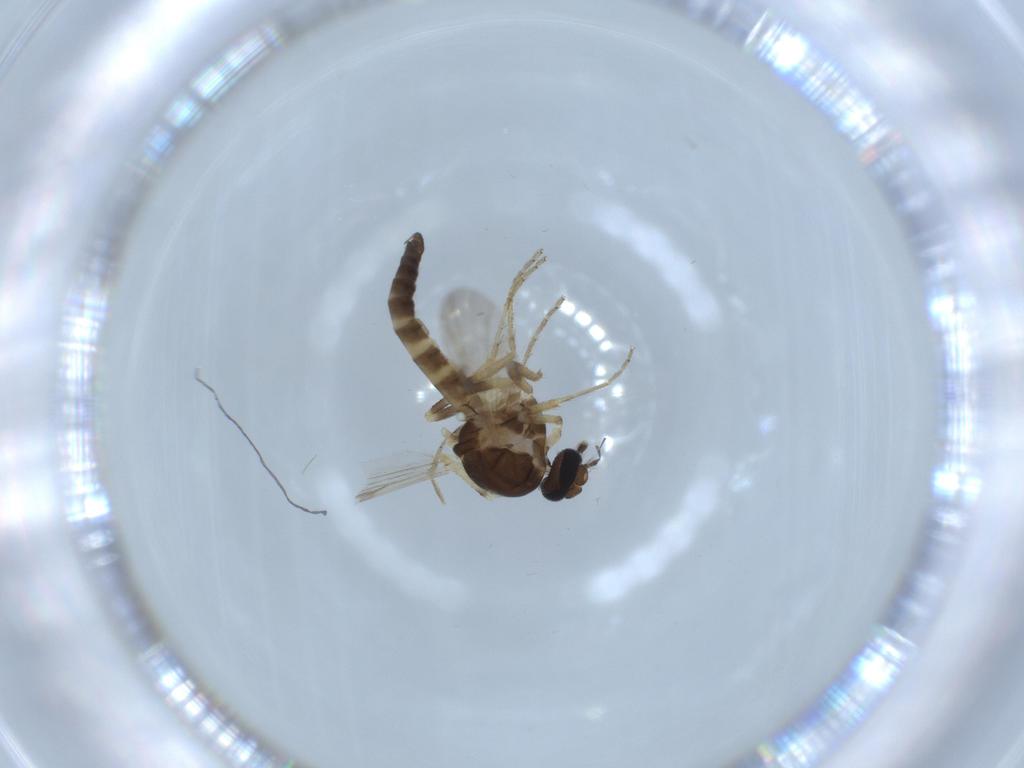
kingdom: Animalia
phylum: Arthropoda
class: Insecta
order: Diptera
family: Ceratopogonidae
